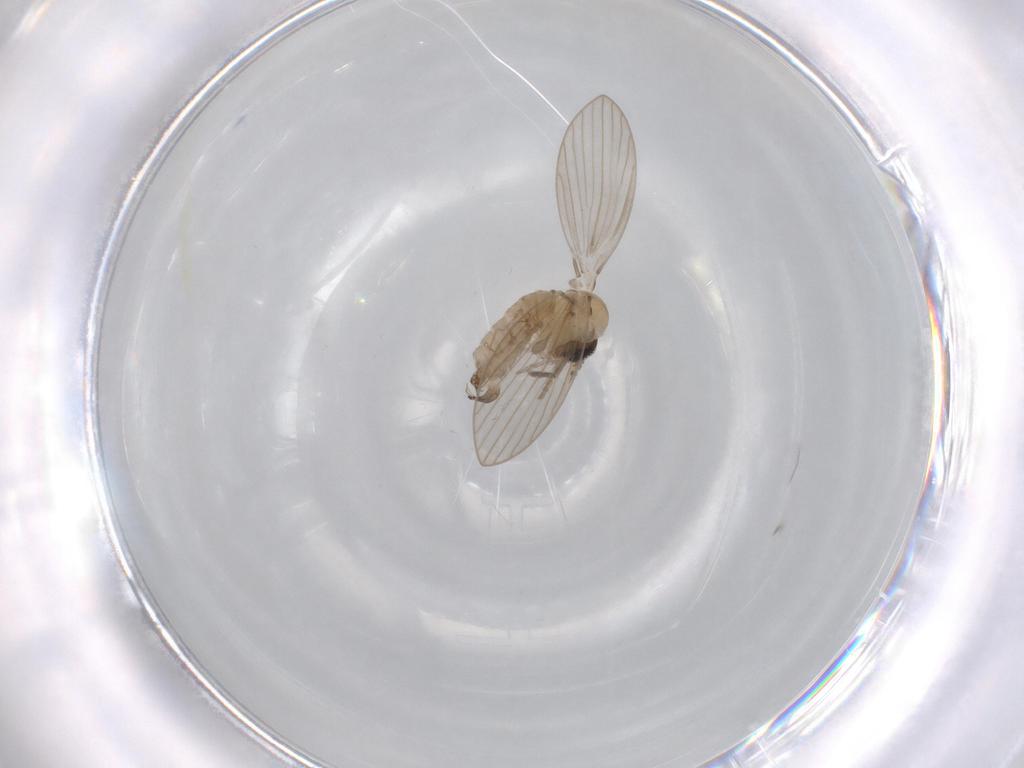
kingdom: Animalia
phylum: Arthropoda
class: Insecta
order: Diptera
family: Psychodidae
